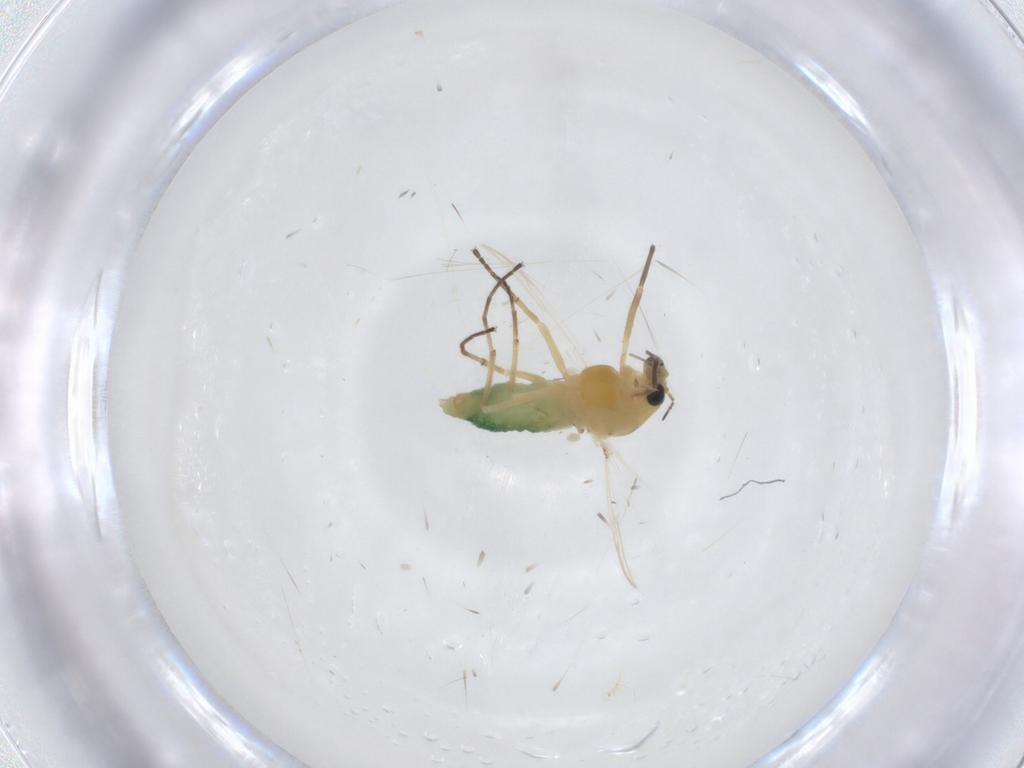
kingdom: Animalia
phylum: Arthropoda
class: Insecta
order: Diptera
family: Chironomidae
